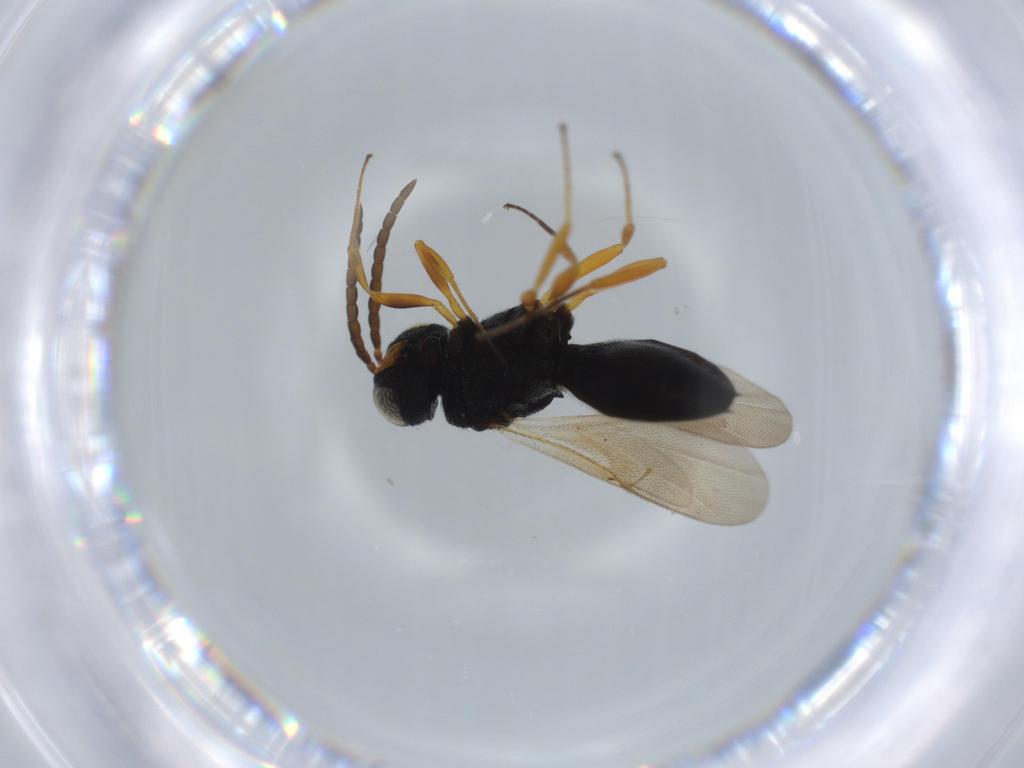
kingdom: Animalia
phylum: Arthropoda
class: Insecta
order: Hymenoptera
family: Scelionidae
